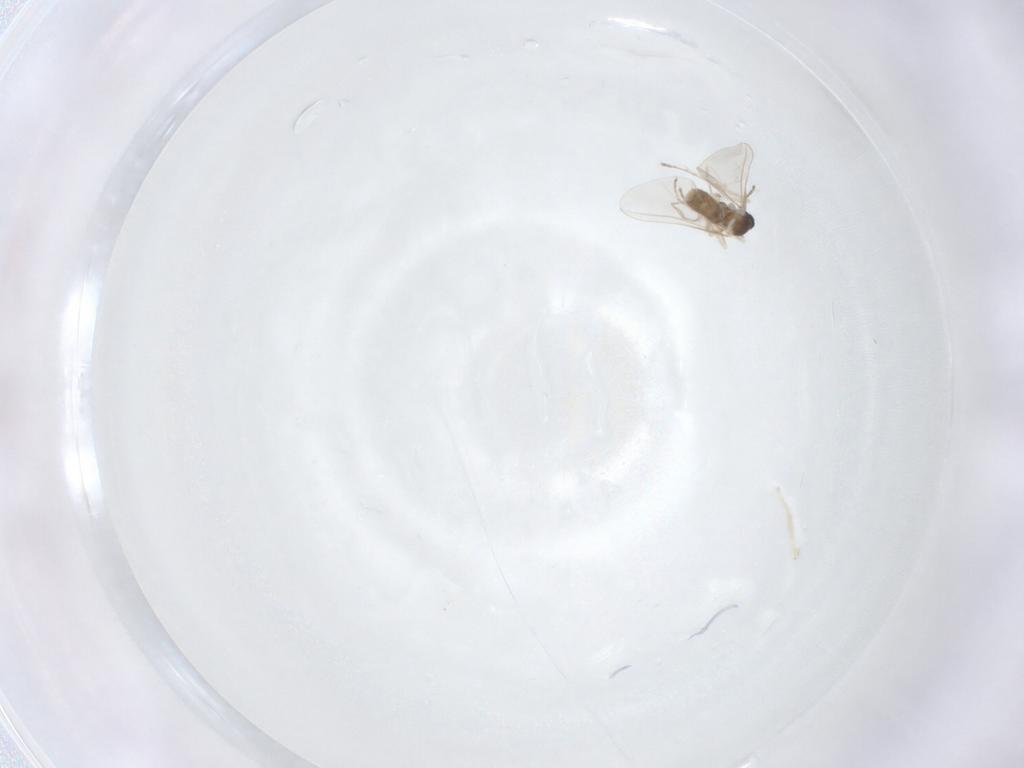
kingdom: Animalia
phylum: Arthropoda
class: Insecta
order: Diptera
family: Cecidomyiidae
